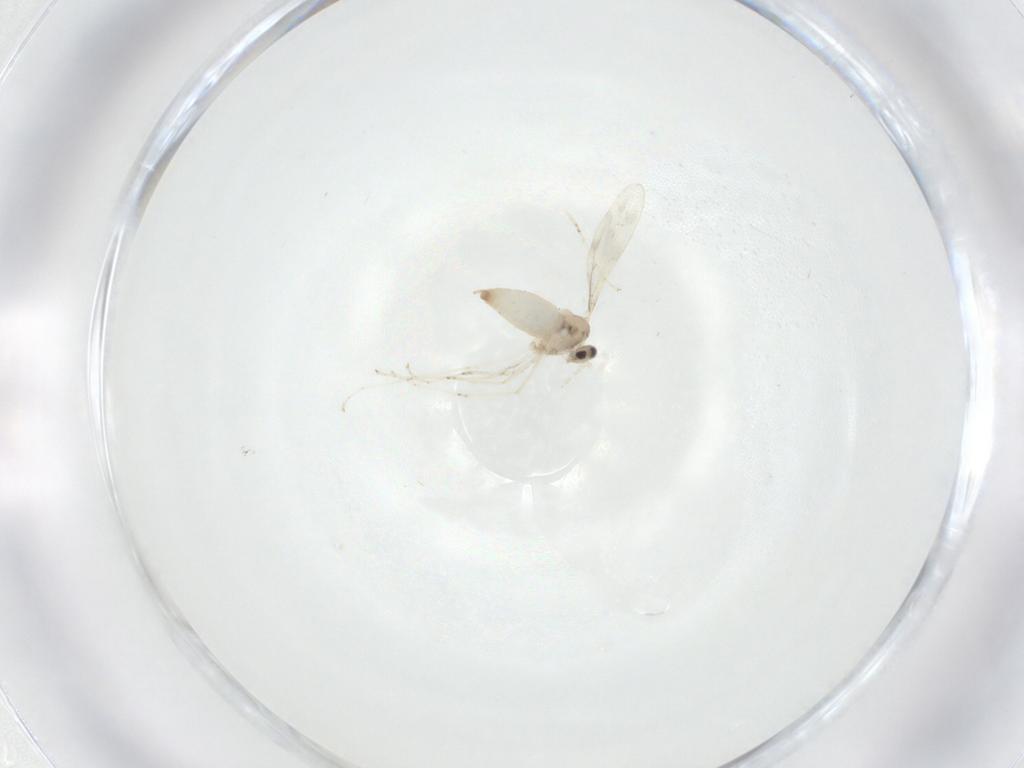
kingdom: Animalia
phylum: Arthropoda
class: Insecta
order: Diptera
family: Cecidomyiidae
